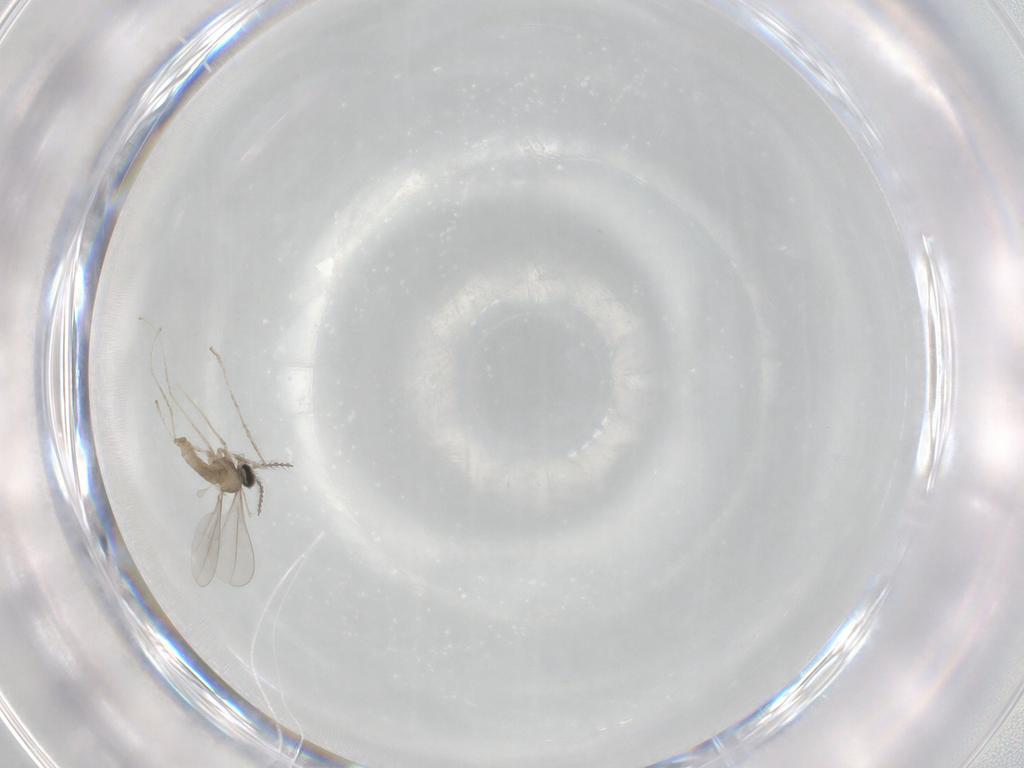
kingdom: Animalia
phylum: Arthropoda
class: Insecta
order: Diptera
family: Cecidomyiidae
